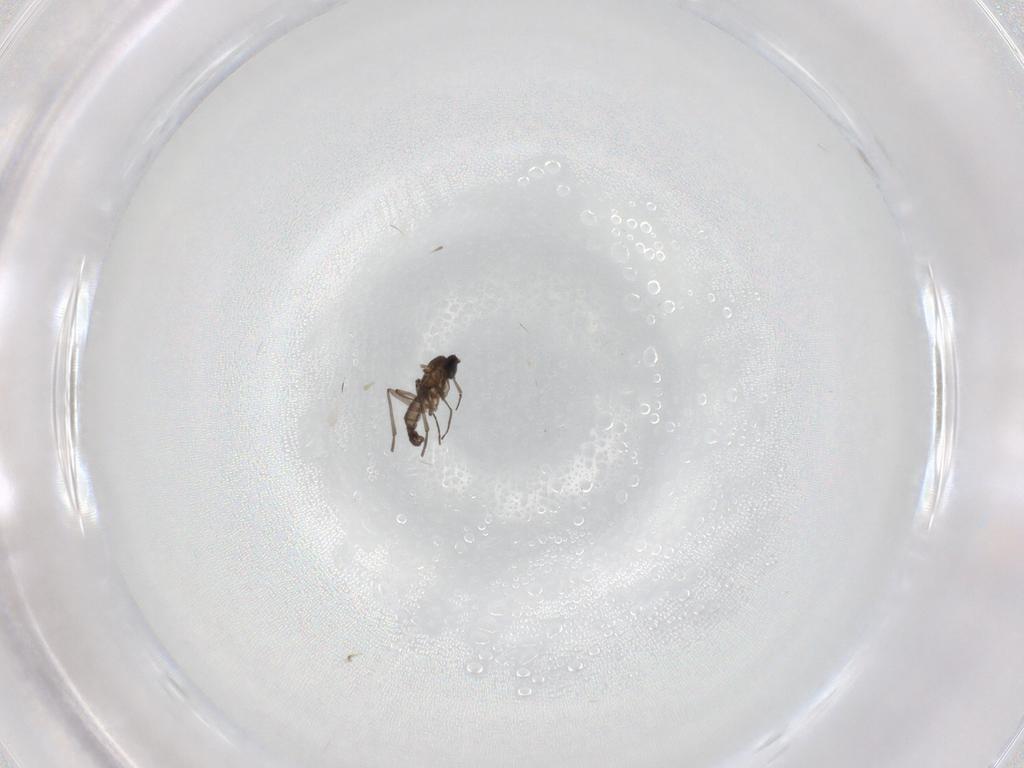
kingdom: Animalia
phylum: Arthropoda
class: Insecta
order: Diptera
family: Sciaridae
